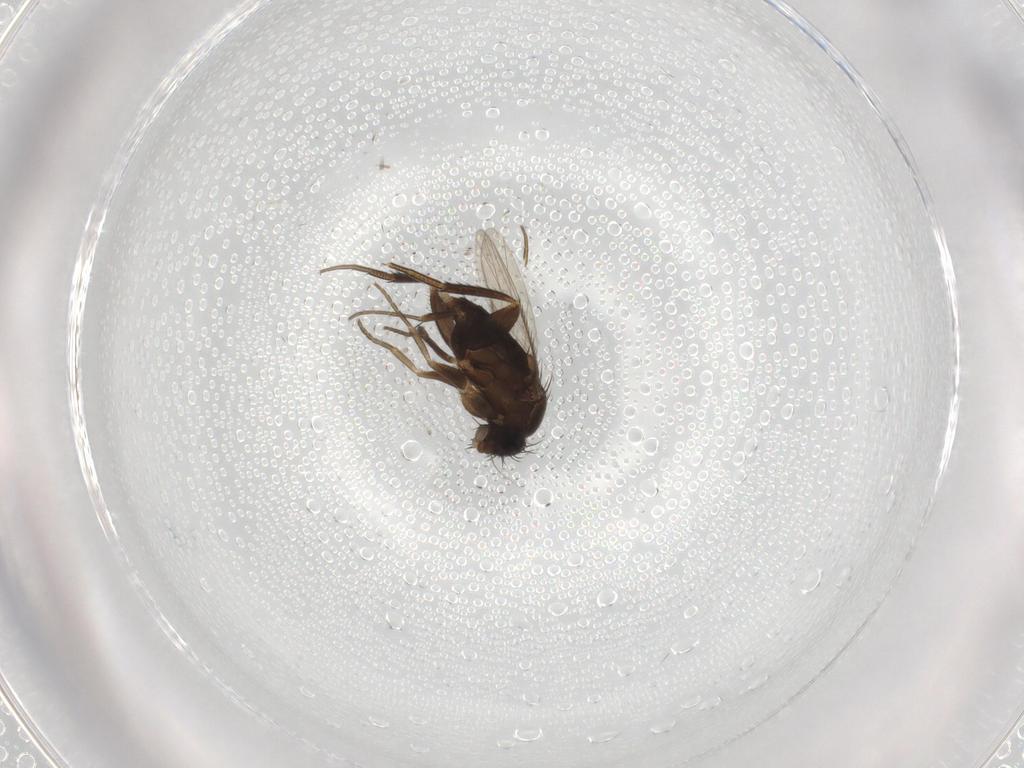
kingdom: Animalia
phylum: Arthropoda
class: Insecta
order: Diptera
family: Phoridae
